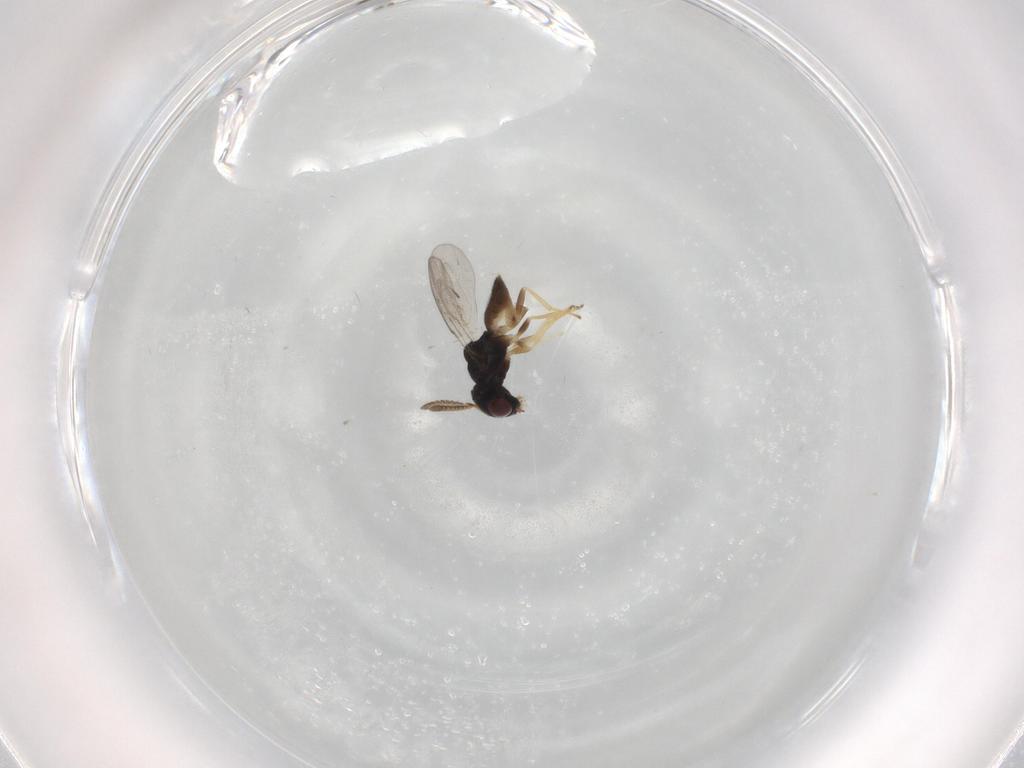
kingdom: Animalia
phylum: Arthropoda
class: Insecta
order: Hymenoptera
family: Pteromalidae
